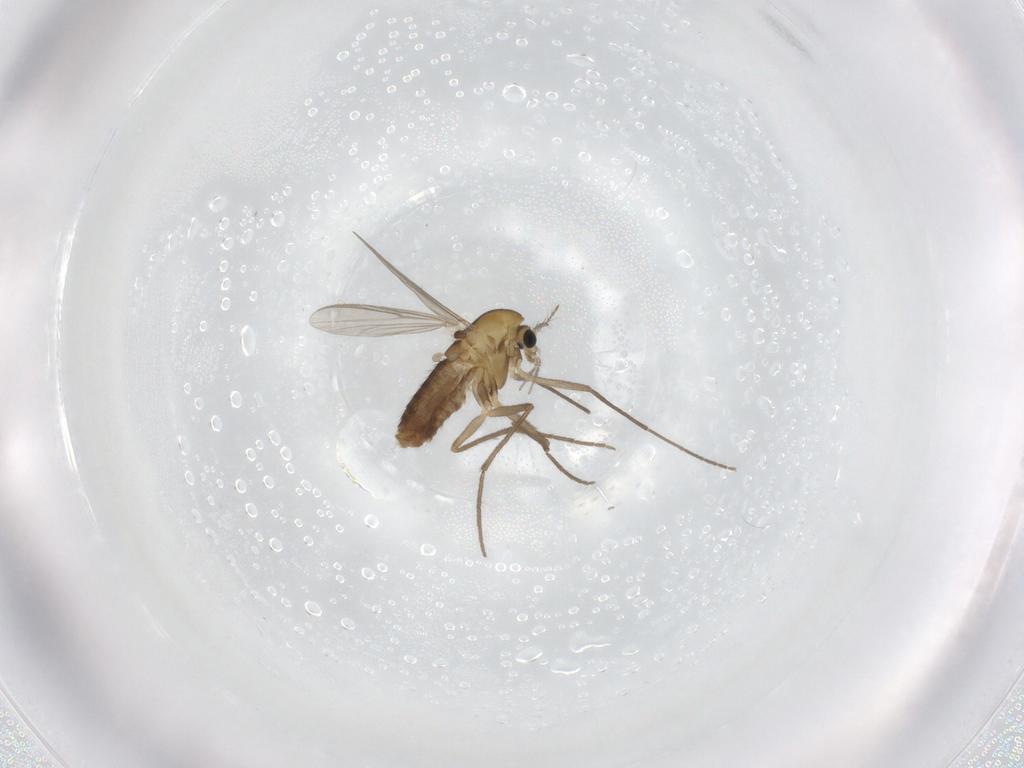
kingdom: Animalia
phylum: Arthropoda
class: Insecta
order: Diptera
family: Chironomidae
